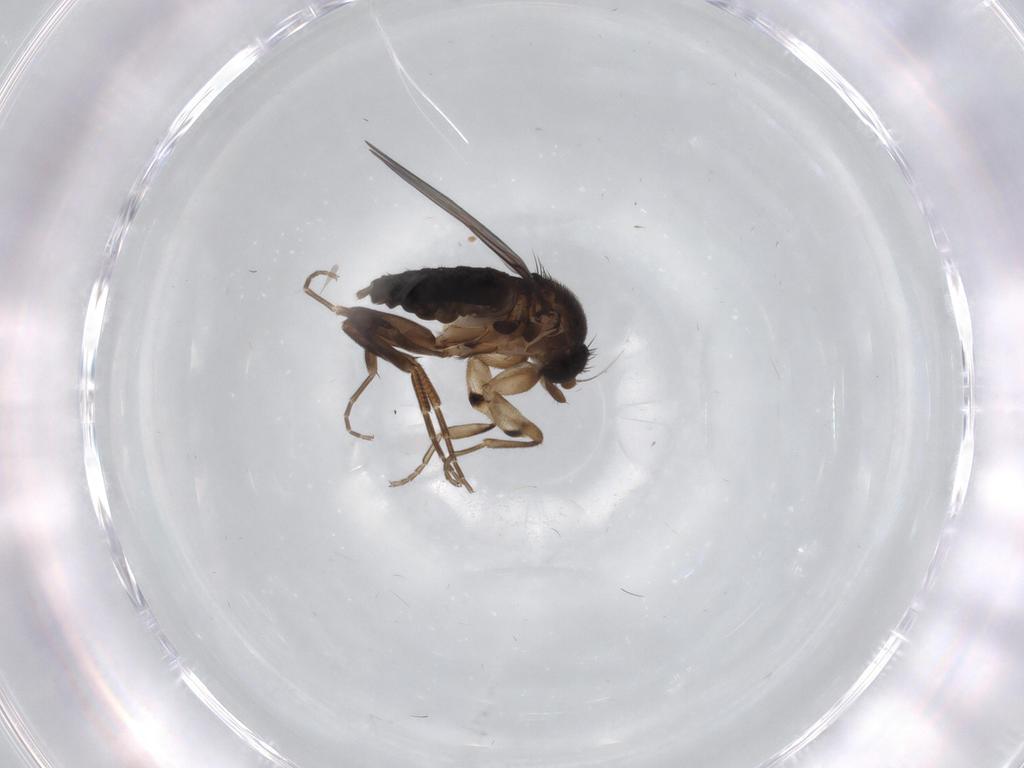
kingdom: Animalia
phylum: Arthropoda
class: Insecta
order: Diptera
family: Phoridae
